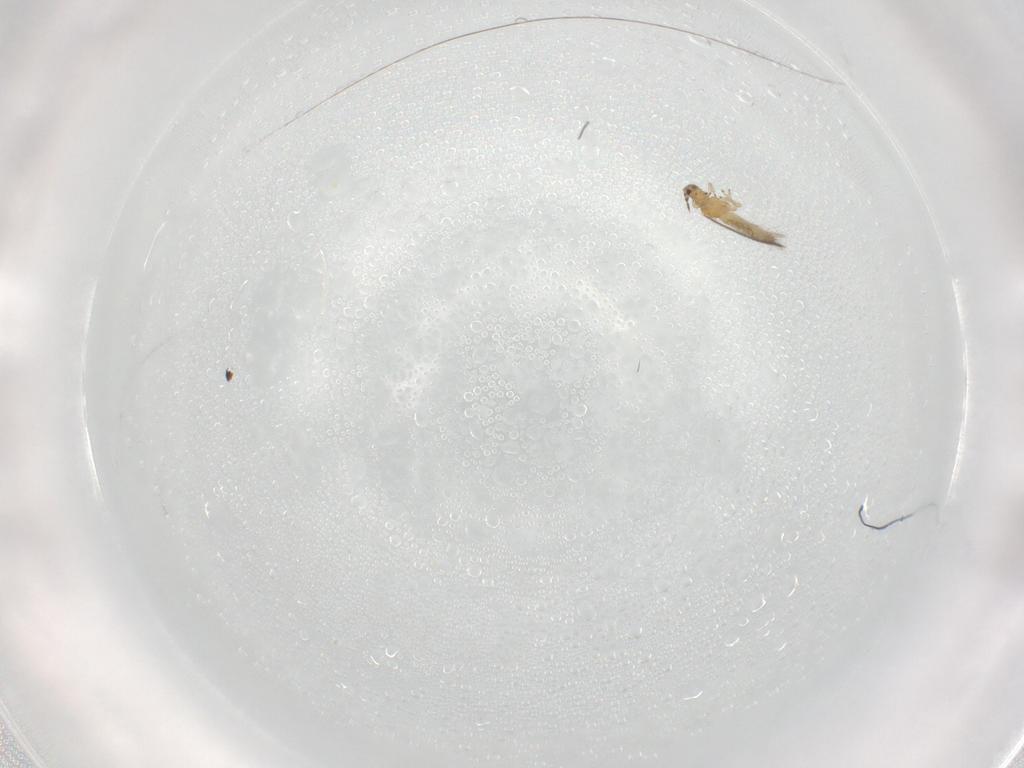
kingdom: Animalia
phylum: Arthropoda
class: Insecta
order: Thysanoptera
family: Thripidae
